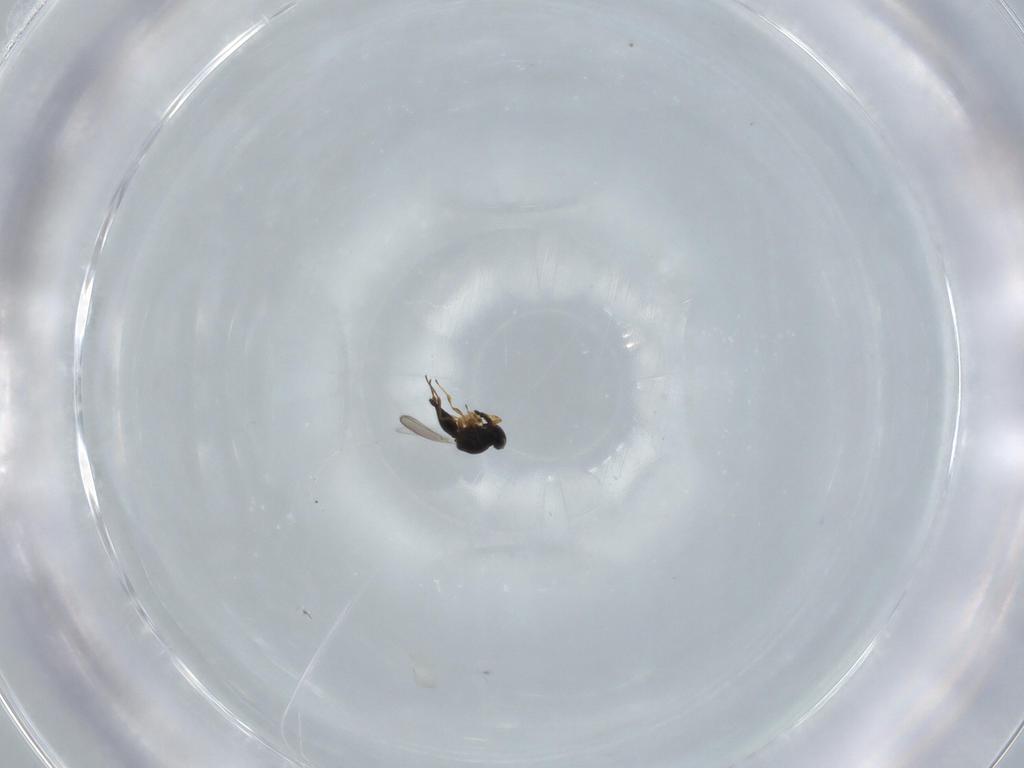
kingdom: Animalia
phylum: Arthropoda
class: Insecta
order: Hymenoptera
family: Platygastridae
